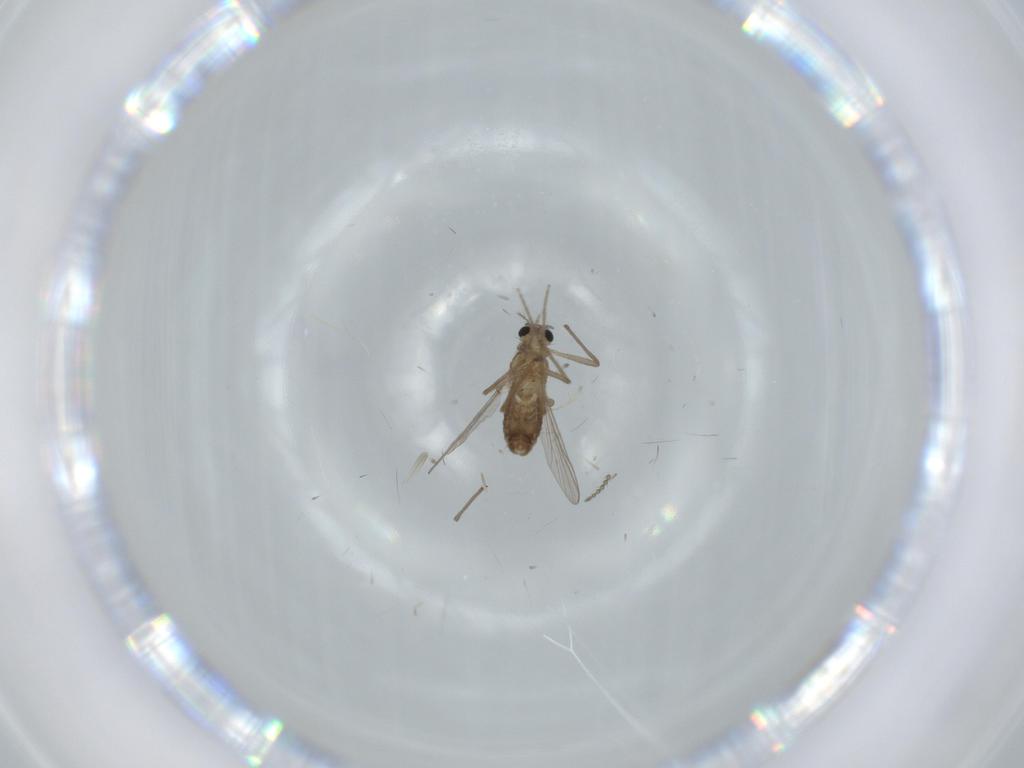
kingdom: Animalia
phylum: Arthropoda
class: Insecta
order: Diptera
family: Chironomidae
